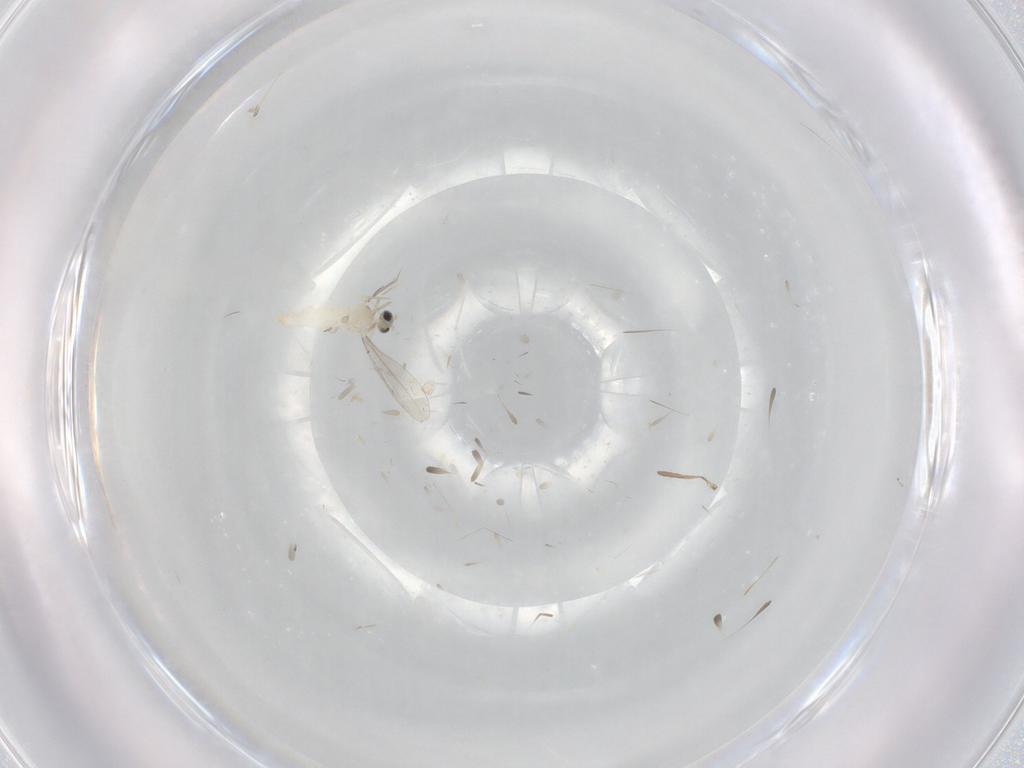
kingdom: Animalia
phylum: Arthropoda
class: Insecta
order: Diptera
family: Cecidomyiidae
